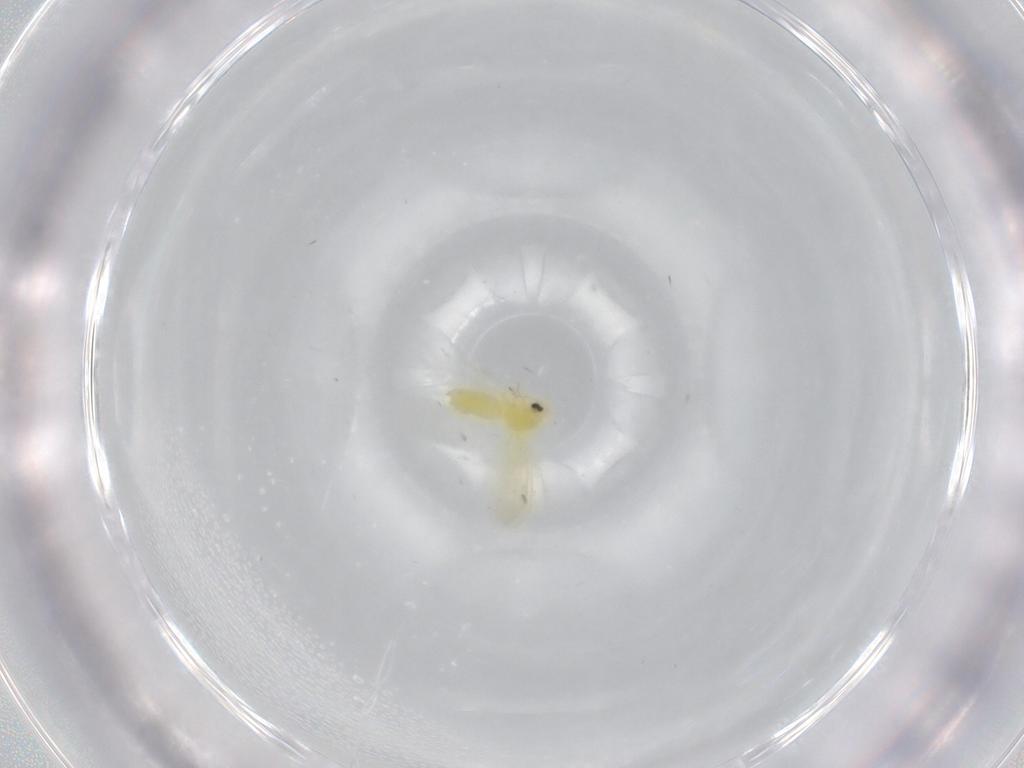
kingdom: Animalia
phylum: Arthropoda
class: Insecta
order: Hemiptera
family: Aleyrodidae
